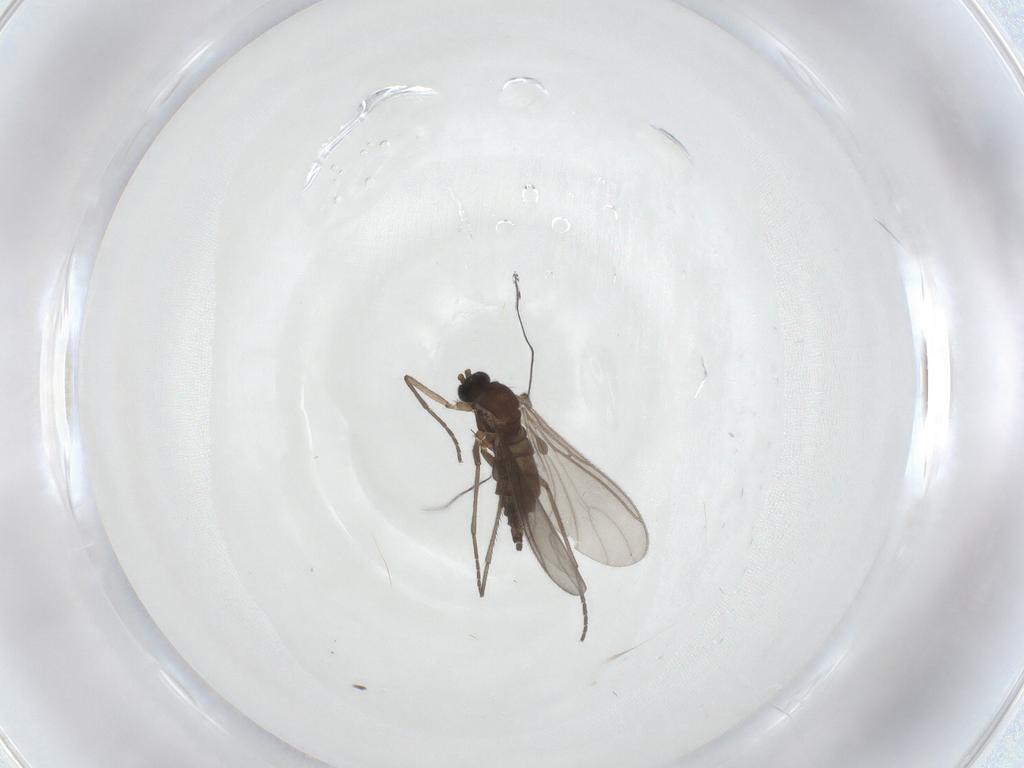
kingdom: Animalia
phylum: Arthropoda
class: Insecta
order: Diptera
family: Sciaridae
